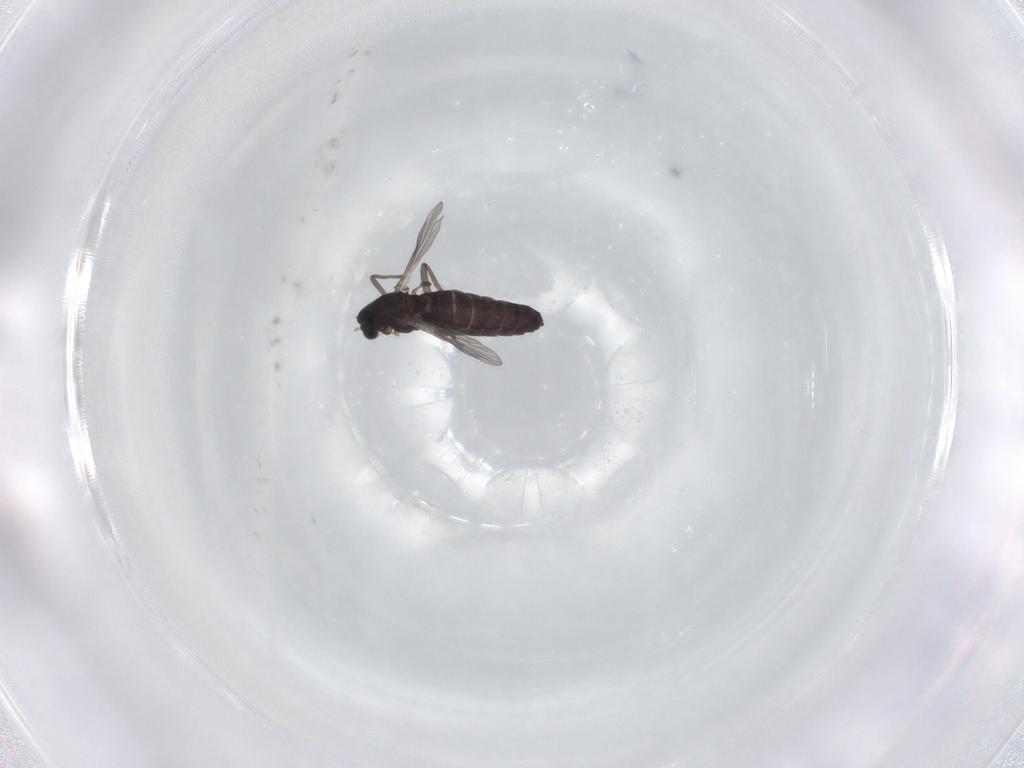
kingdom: Animalia
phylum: Arthropoda
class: Insecta
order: Diptera
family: Chironomidae
